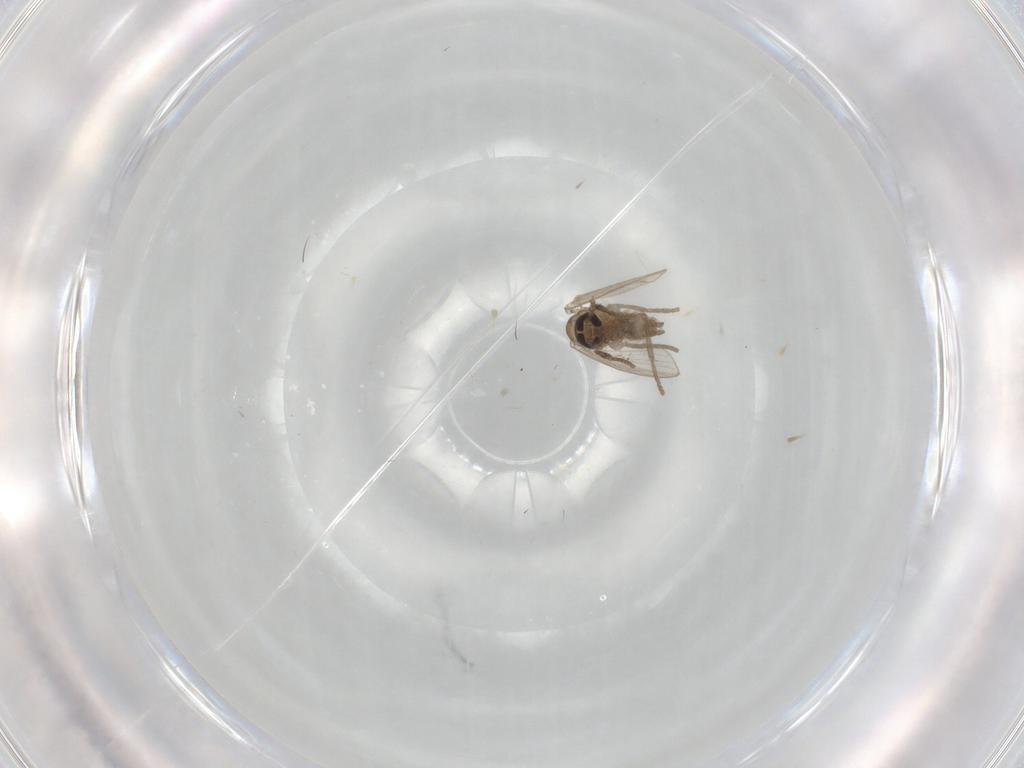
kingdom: Animalia
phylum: Arthropoda
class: Insecta
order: Diptera
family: Psychodidae
